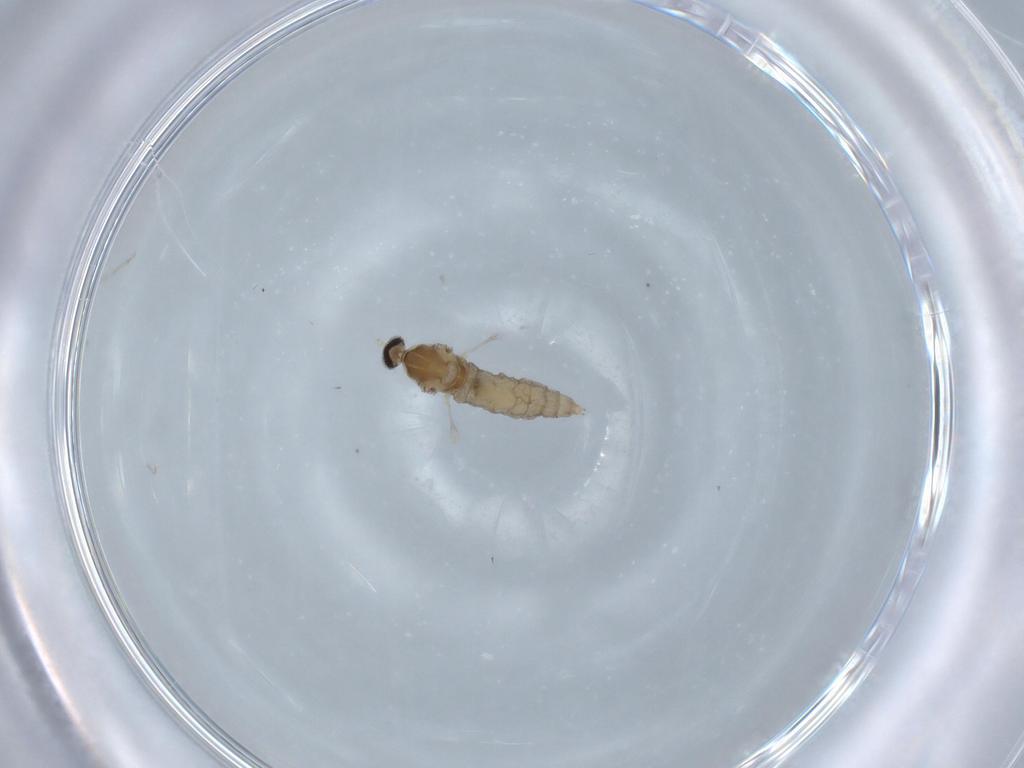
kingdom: Animalia
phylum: Arthropoda
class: Insecta
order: Diptera
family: Cecidomyiidae
